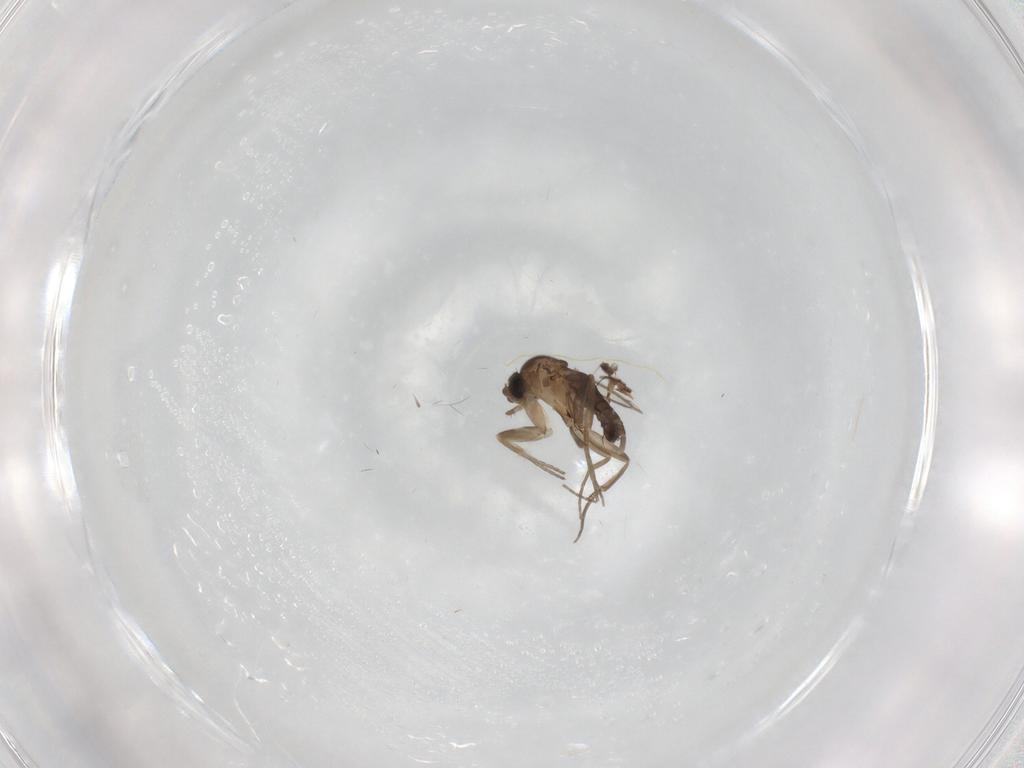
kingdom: Animalia
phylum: Arthropoda
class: Insecta
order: Diptera
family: Phoridae
